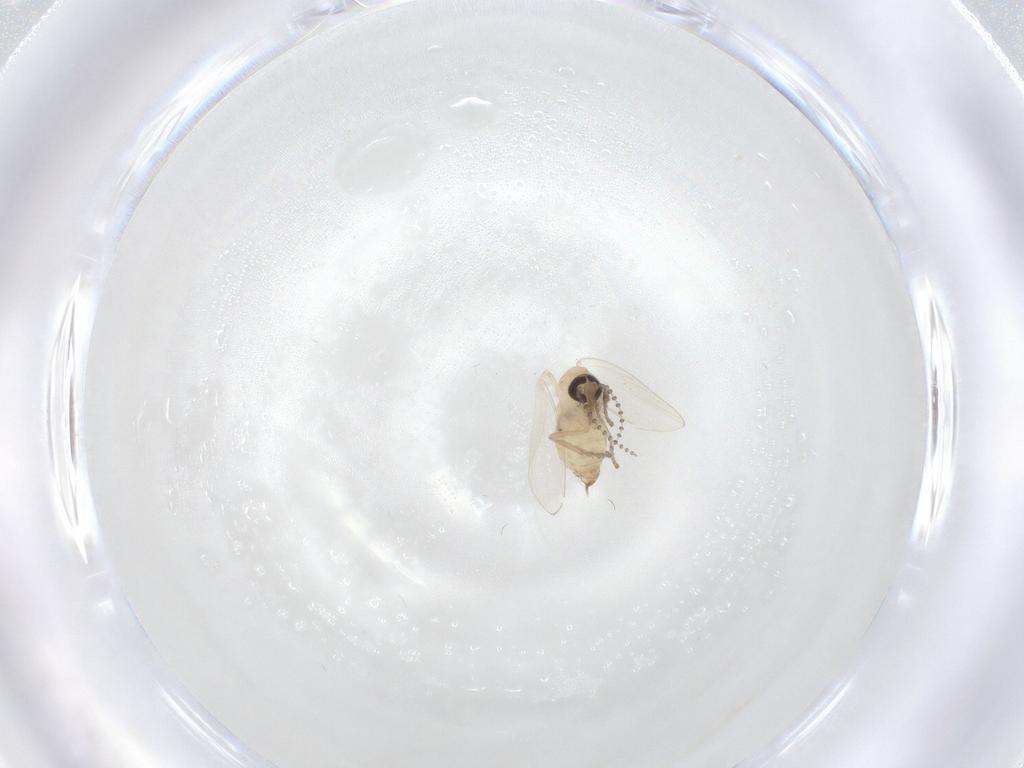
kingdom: Animalia
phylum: Arthropoda
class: Insecta
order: Diptera
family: Psychodidae
